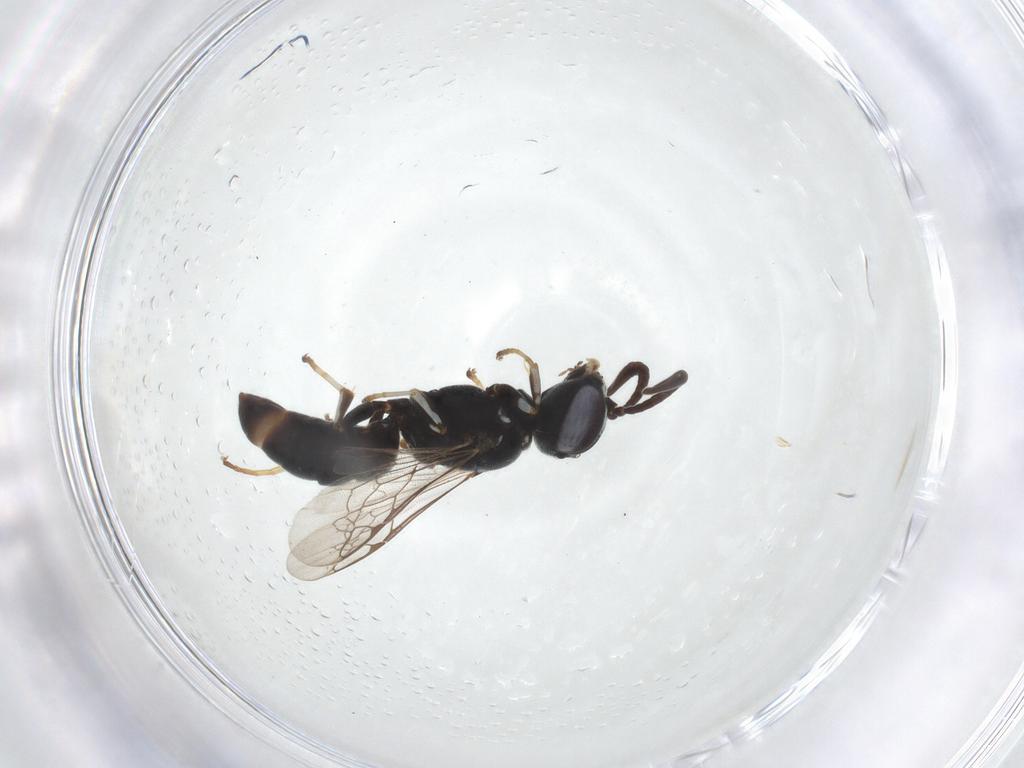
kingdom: Animalia
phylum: Arthropoda
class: Insecta
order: Hymenoptera
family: Crabronidae
